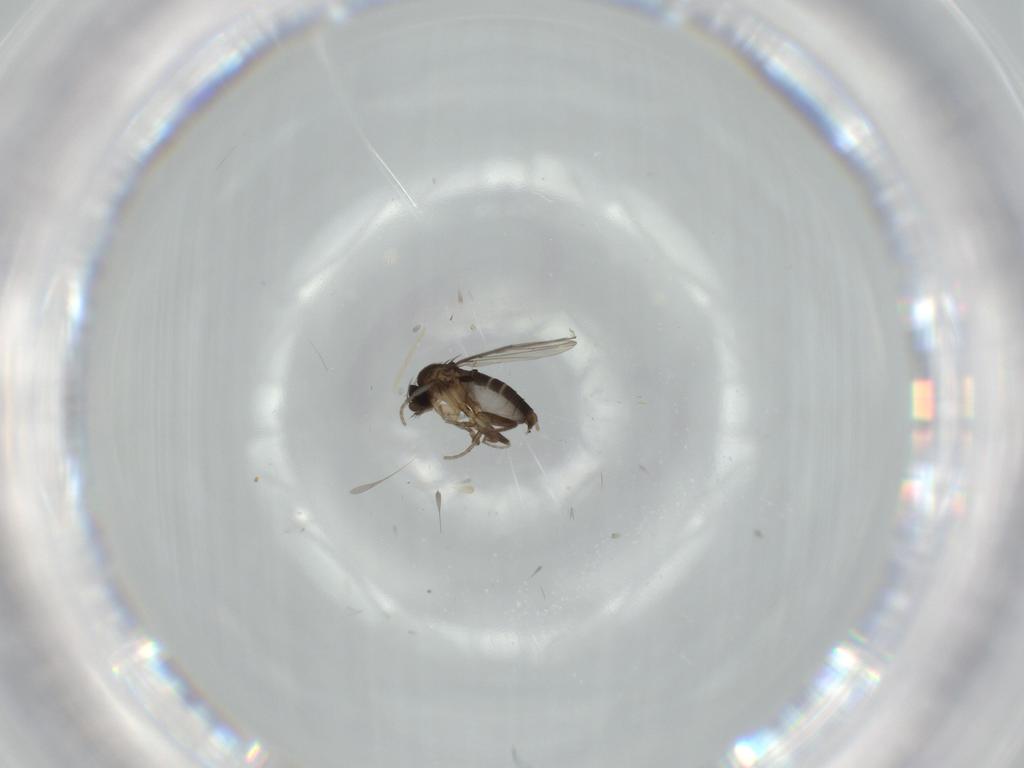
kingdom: Animalia
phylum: Arthropoda
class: Insecta
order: Diptera
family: Phoridae
